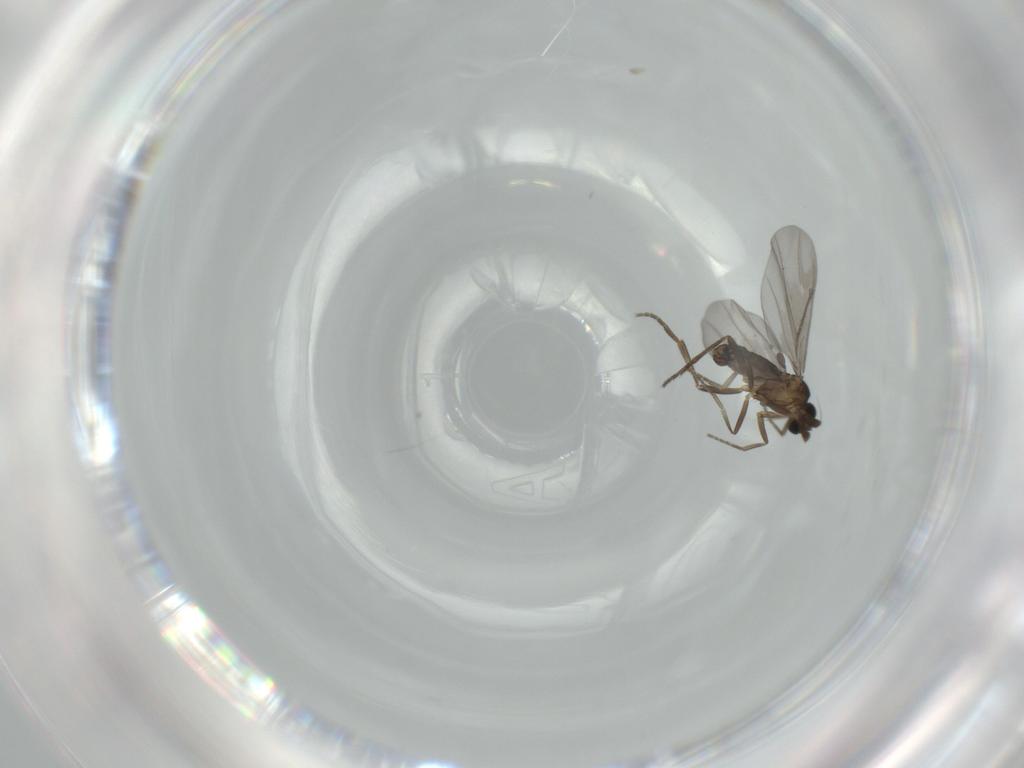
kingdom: Animalia
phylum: Arthropoda
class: Insecta
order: Diptera
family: Phoridae
